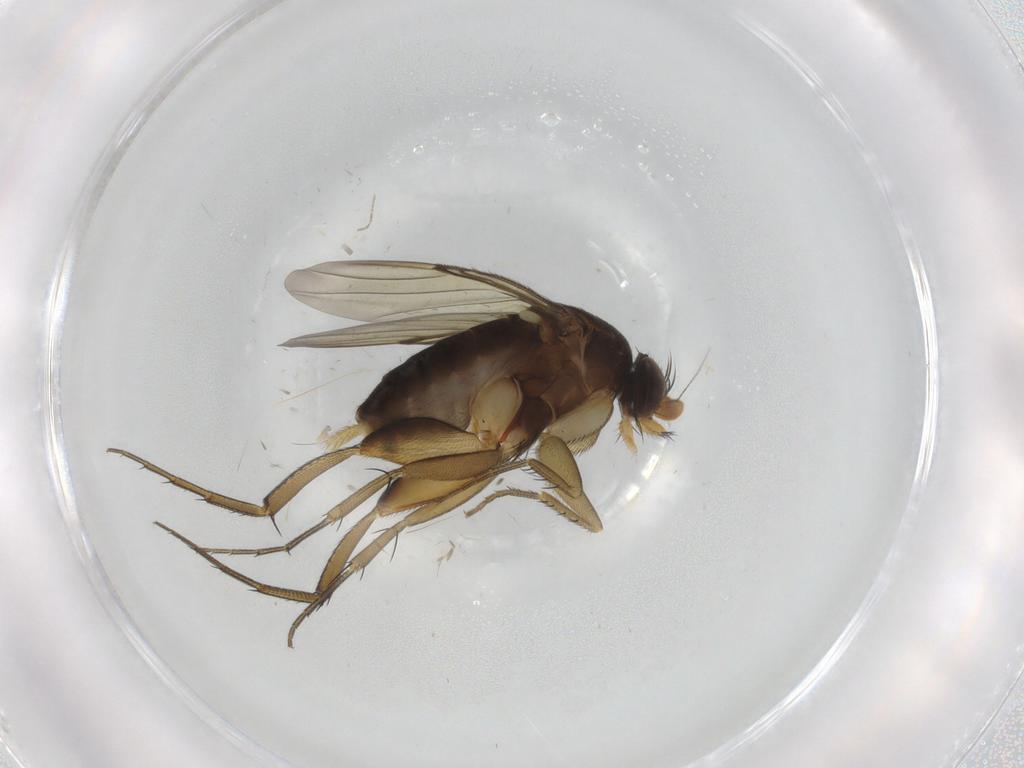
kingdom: Animalia
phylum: Arthropoda
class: Insecta
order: Diptera
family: Phoridae
